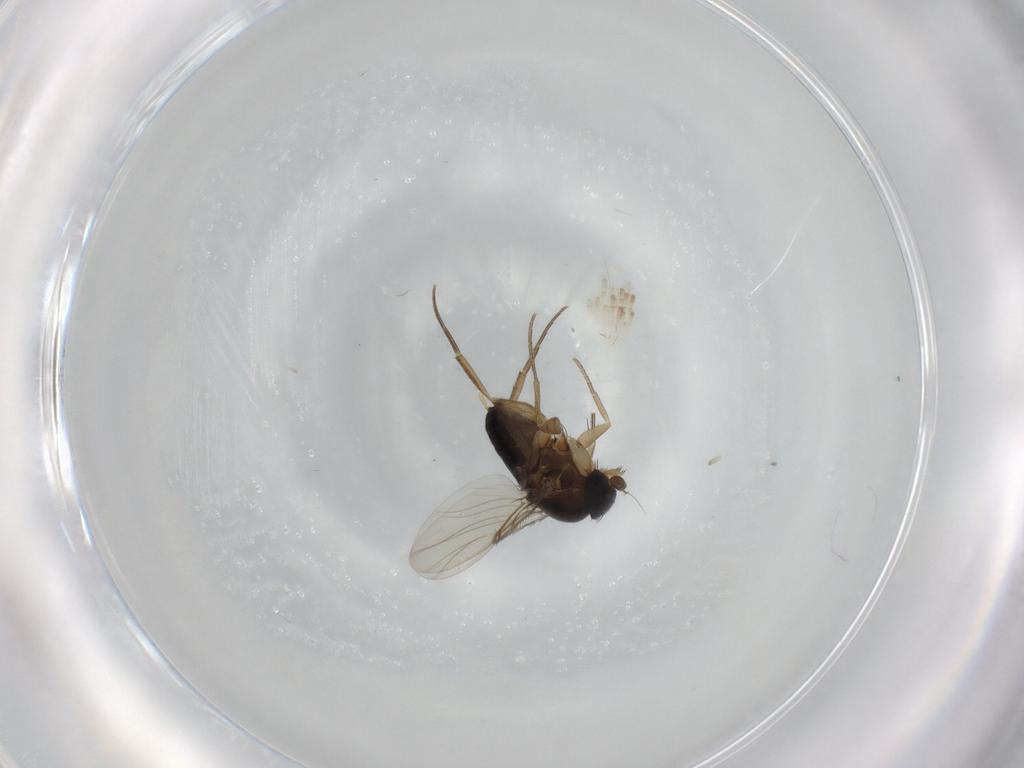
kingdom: Animalia
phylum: Arthropoda
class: Insecta
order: Diptera
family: Phoridae
